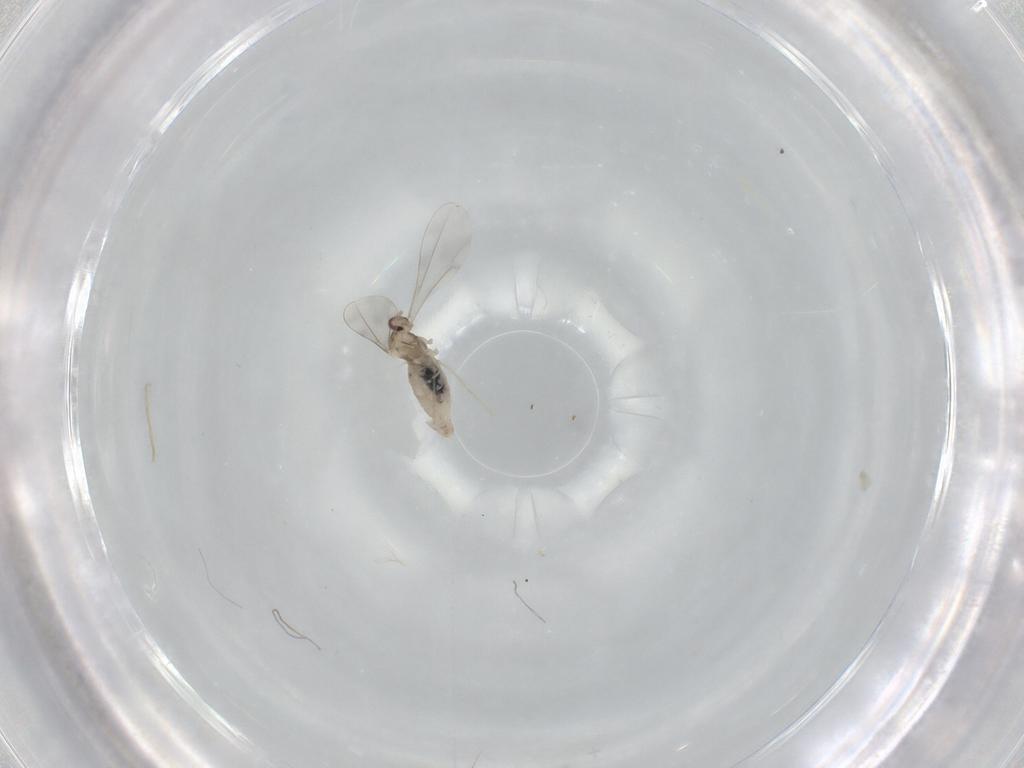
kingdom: Animalia
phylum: Arthropoda
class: Insecta
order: Diptera
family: Cecidomyiidae
